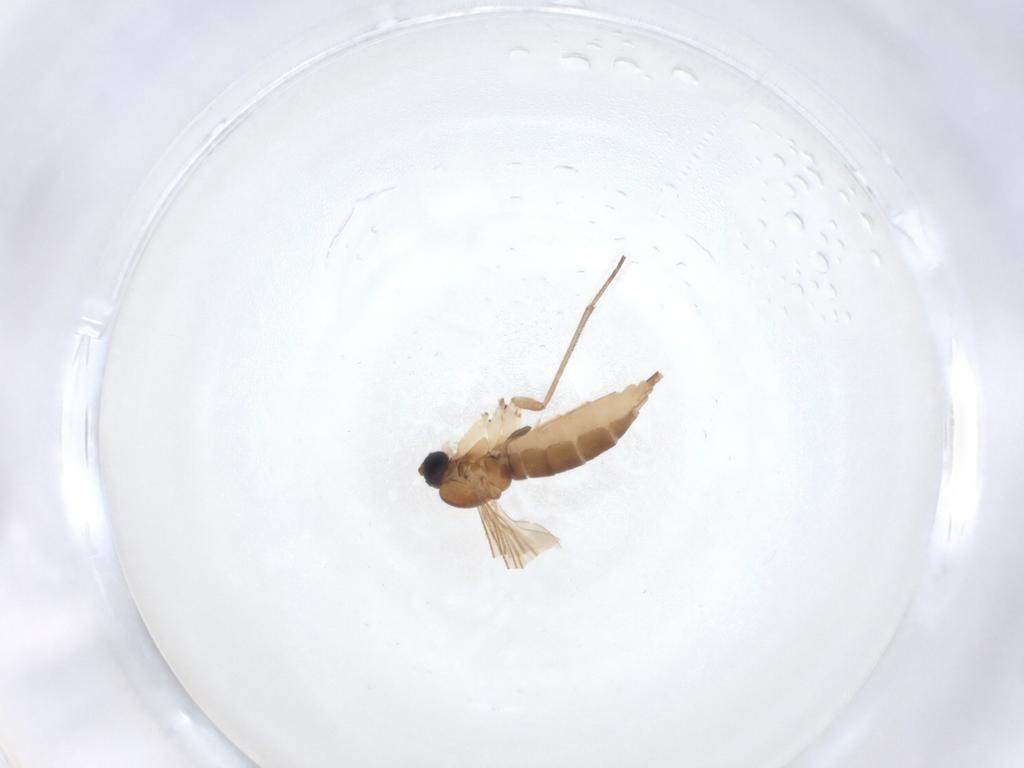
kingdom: Animalia
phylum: Arthropoda
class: Insecta
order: Diptera
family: Sciaridae
